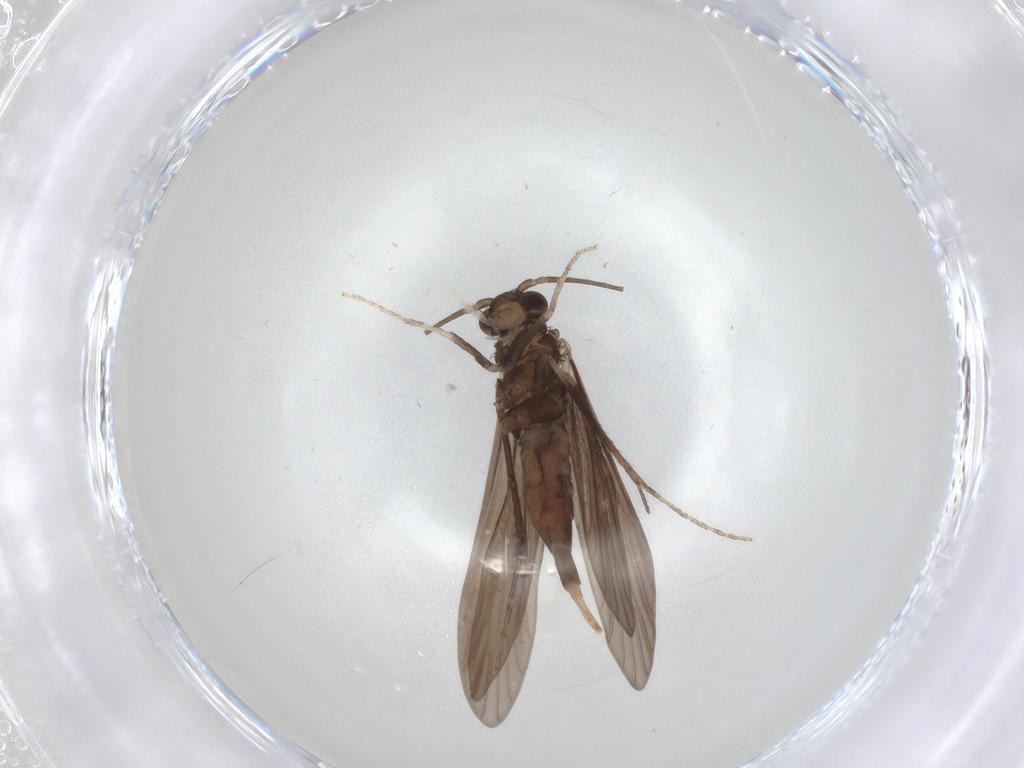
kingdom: Animalia
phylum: Arthropoda
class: Insecta
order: Trichoptera
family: Xiphocentronidae
